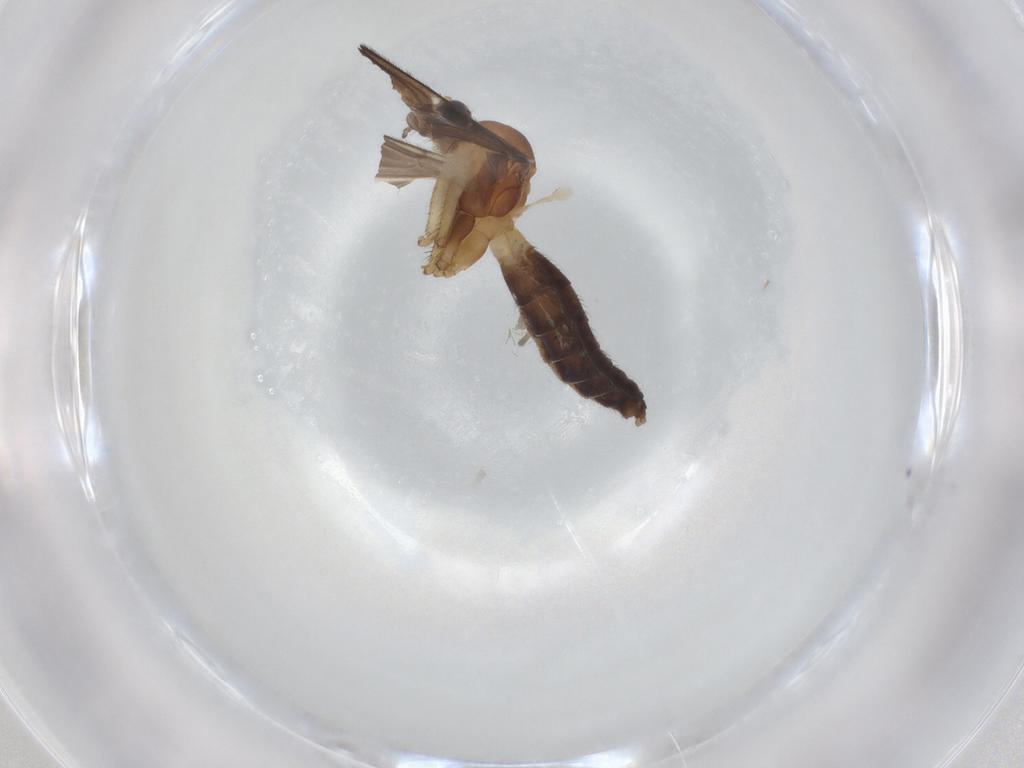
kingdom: Animalia
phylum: Arthropoda
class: Insecta
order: Diptera
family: Keroplatidae
